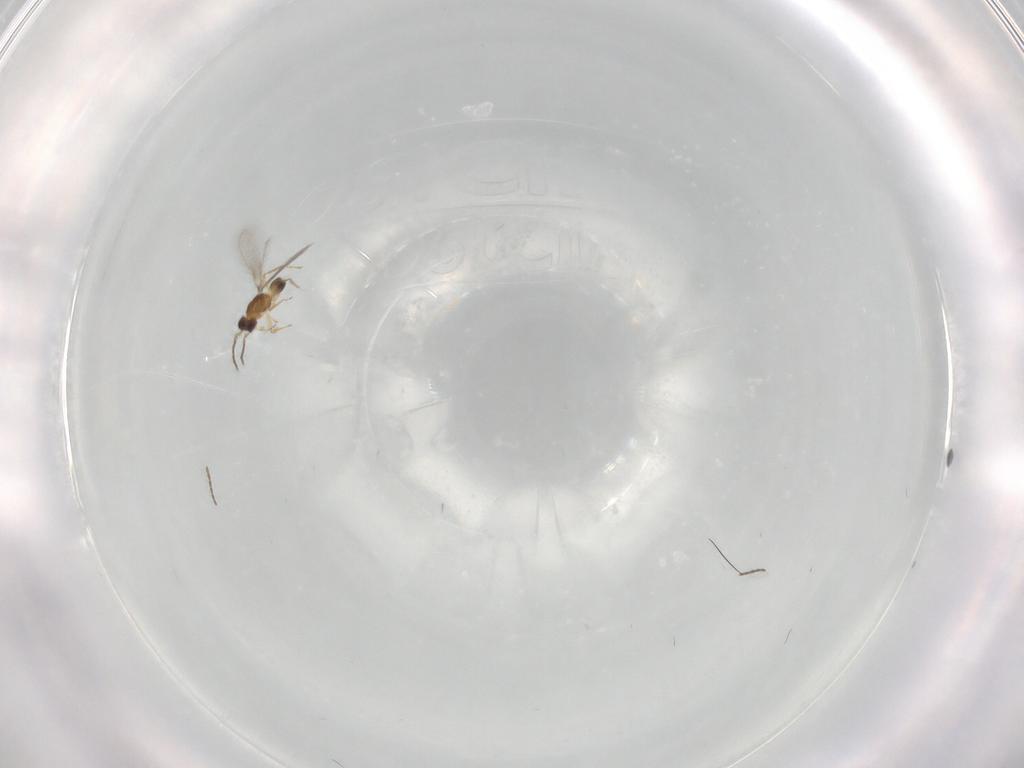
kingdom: Animalia
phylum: Arthropoda
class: Insecta
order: Hymenoptera
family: Mymaridae
